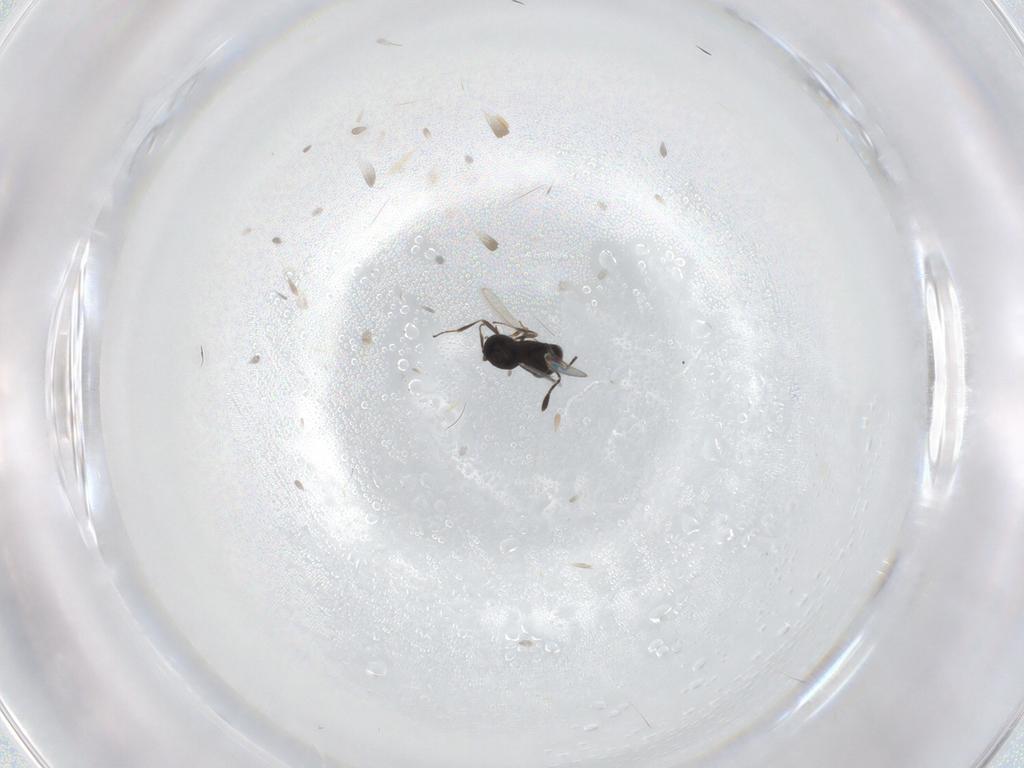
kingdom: Animalia
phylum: Arthropoda
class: Insecta
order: Hymenoptera
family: Scelionidae
